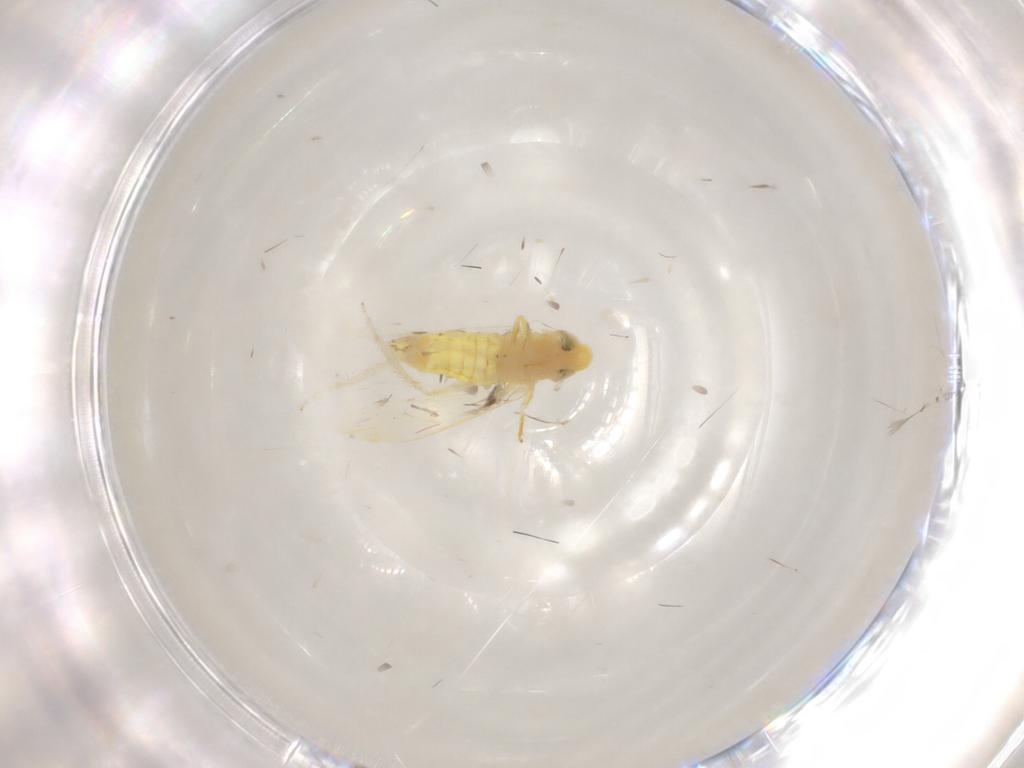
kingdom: Animalia
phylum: Arthropoda
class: Insecta
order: Hemiptera
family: Cicadellidae
